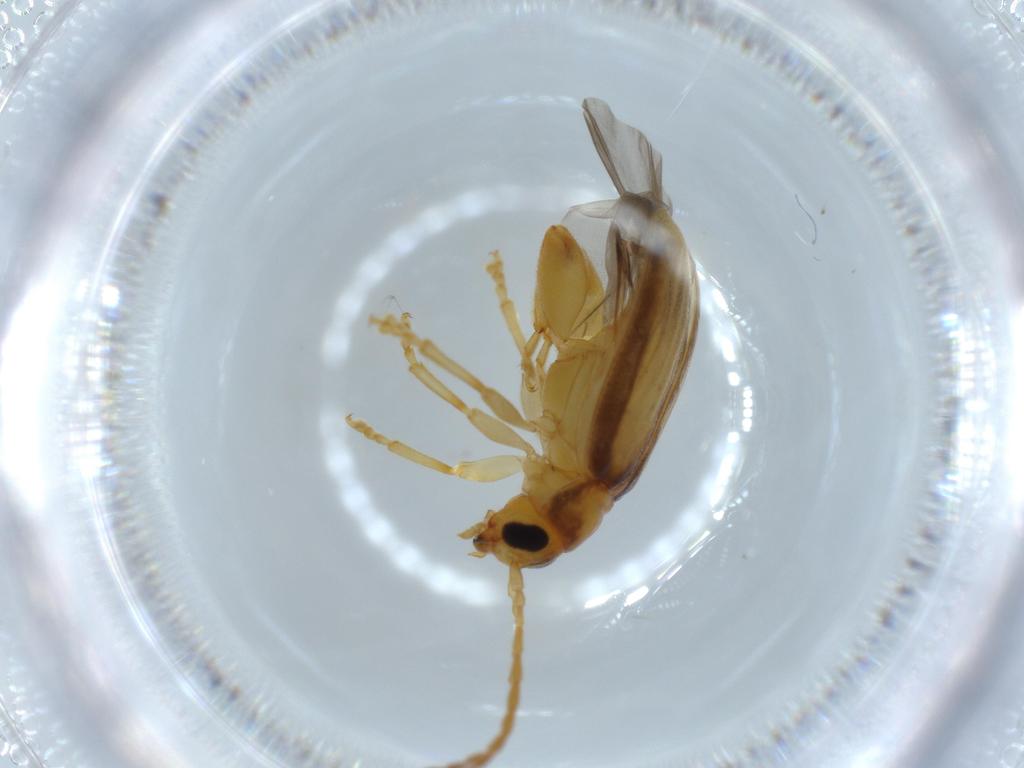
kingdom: Animalia
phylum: Arthropoda
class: Insecta
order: Coleoptera
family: Chrysomelidae
